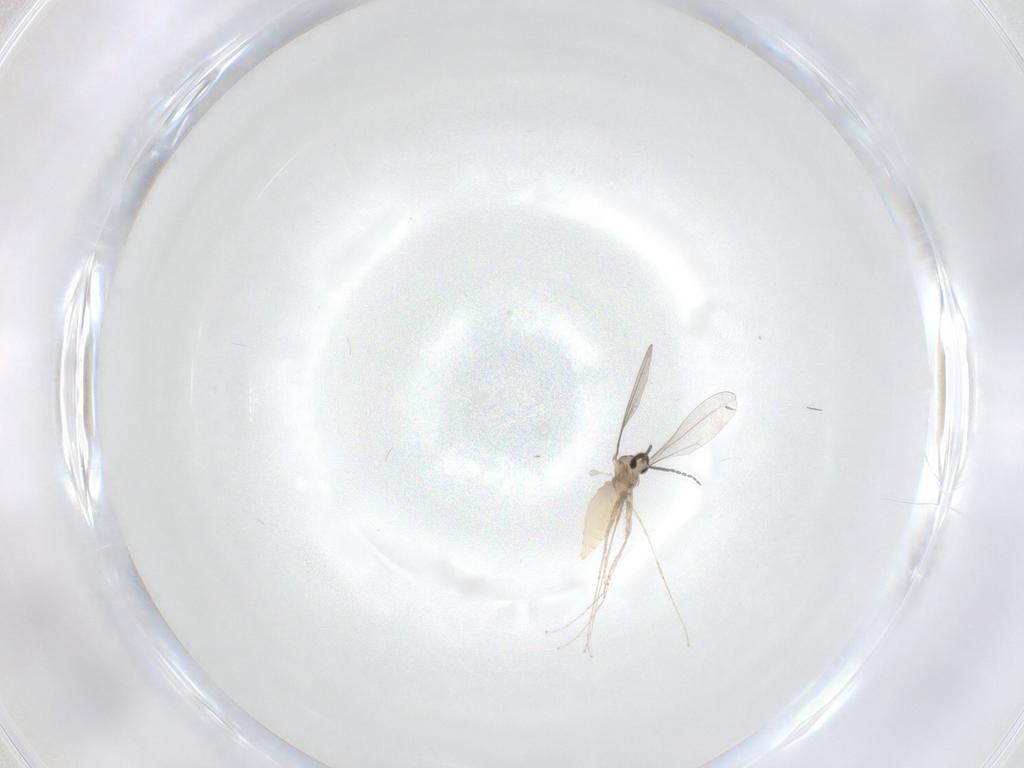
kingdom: Animalia
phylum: Arthropoda
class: Insecta
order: Diptera
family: Cecidomyiidae
